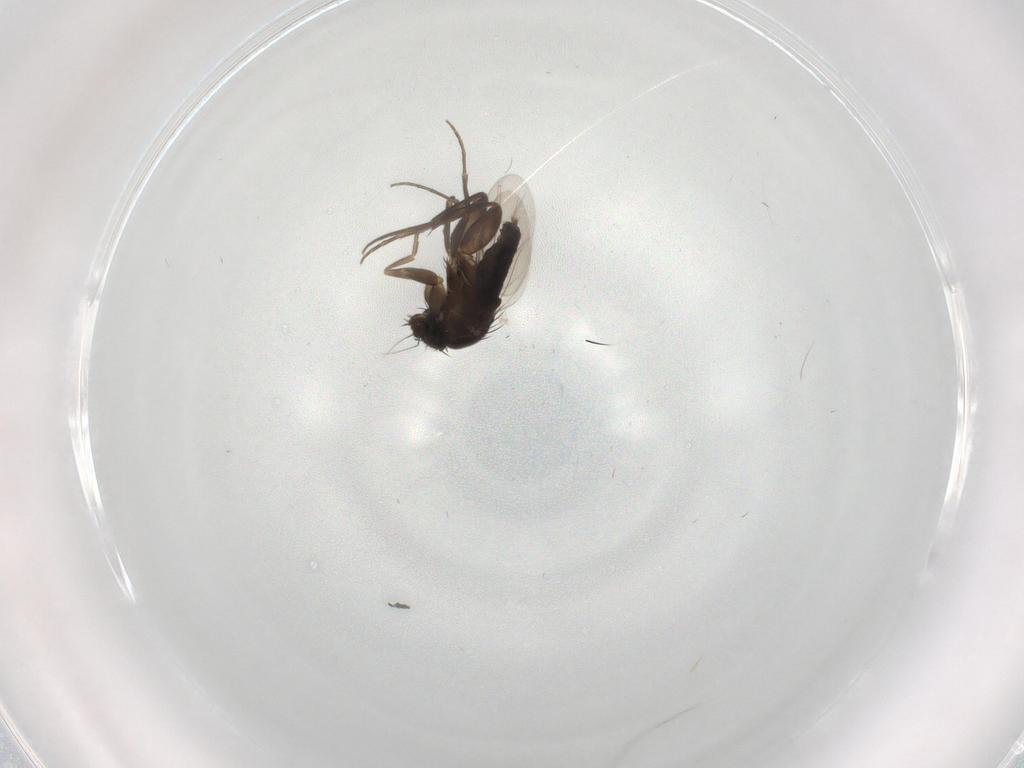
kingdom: Animalia
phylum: Arthropoda
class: Insecta
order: Diptera
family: Phoridae
